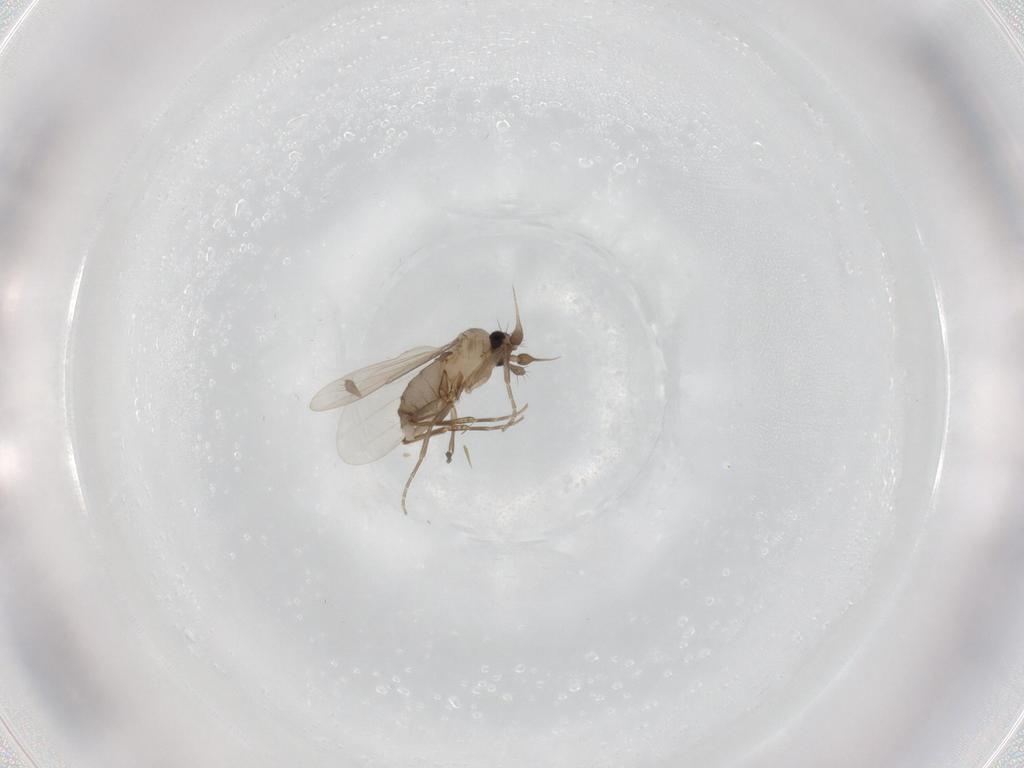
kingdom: Animalia
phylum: Arthropoda
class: Insecta
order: Diptera
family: Phoridae
